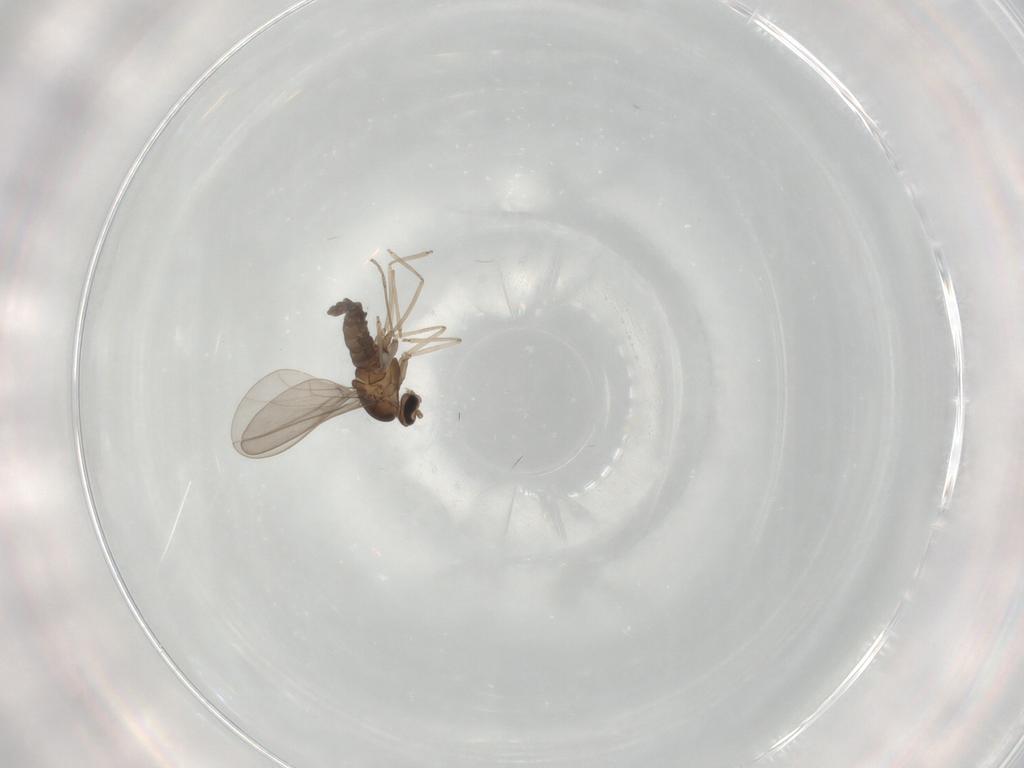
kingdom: Animalia
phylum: Arthropoda
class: Insecta
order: Diptera
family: Cecidomyiidae
